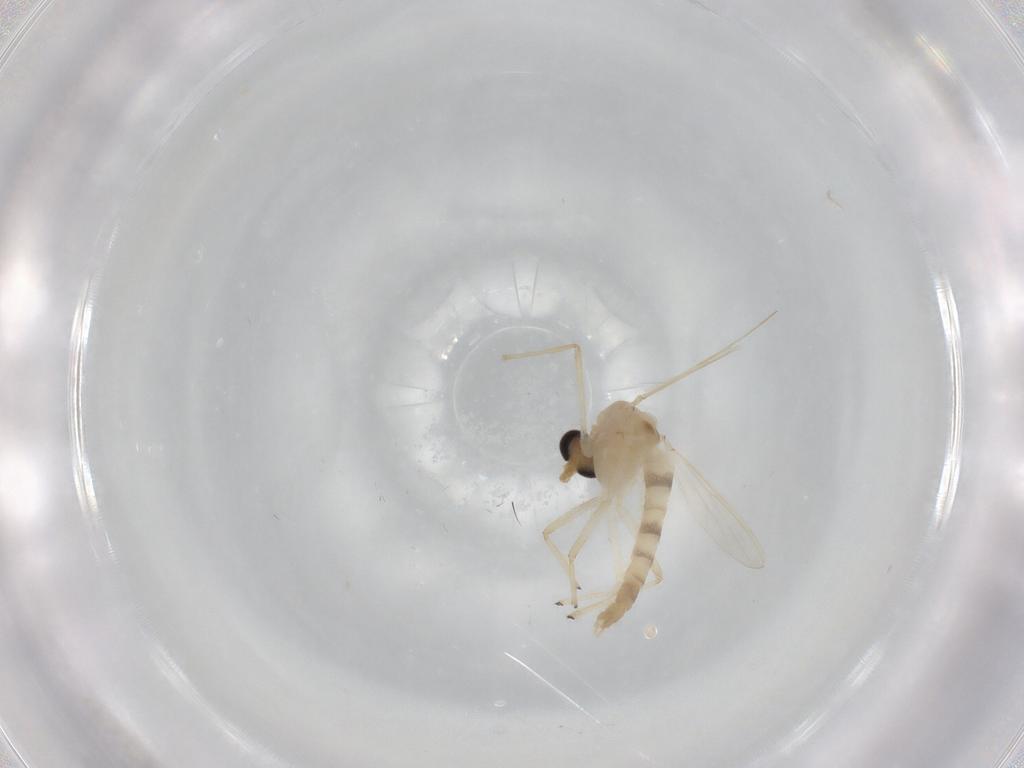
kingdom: Animalia
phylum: Arthropoda
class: Insecta
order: Diptera
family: Chironomidae
